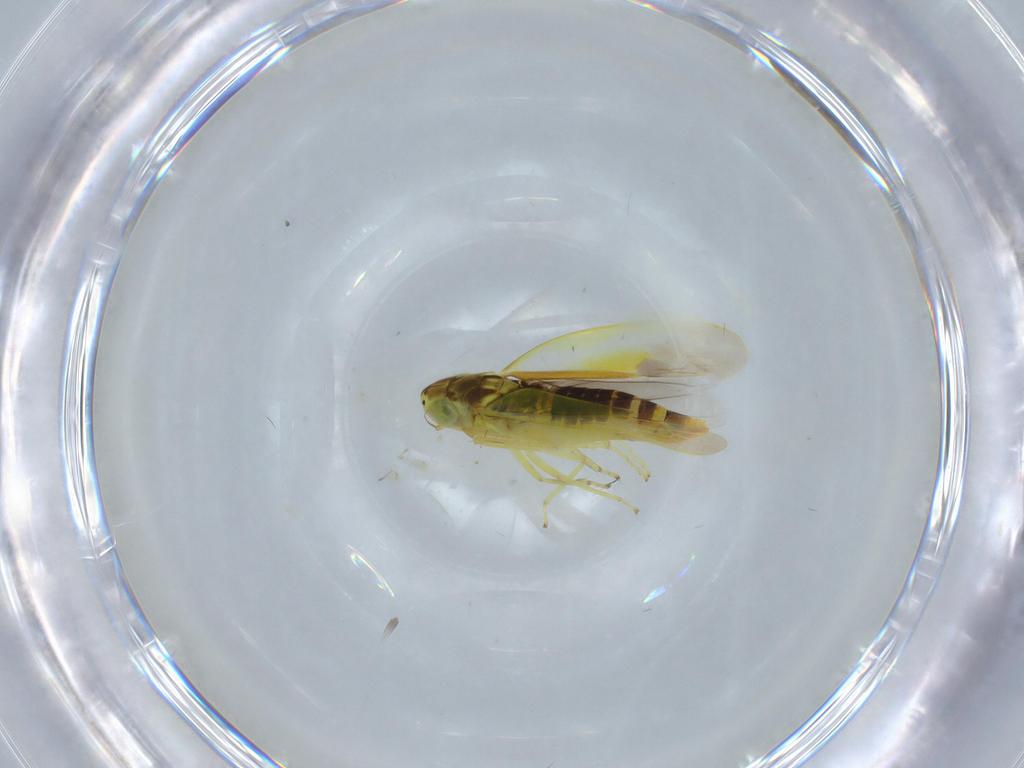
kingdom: Animalia
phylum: Arthropoda
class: Insecta
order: Hemiptera
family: Cicadellidae
